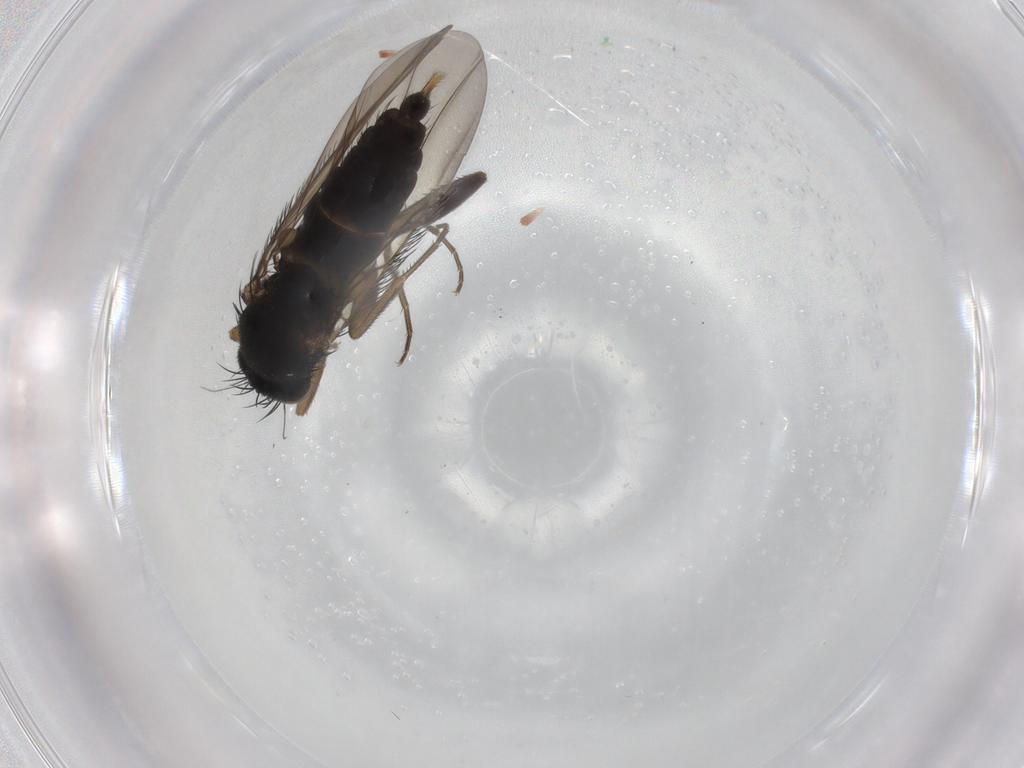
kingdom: Animalia
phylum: Arthropoda
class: Insecta
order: Diptera
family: Phoridae
